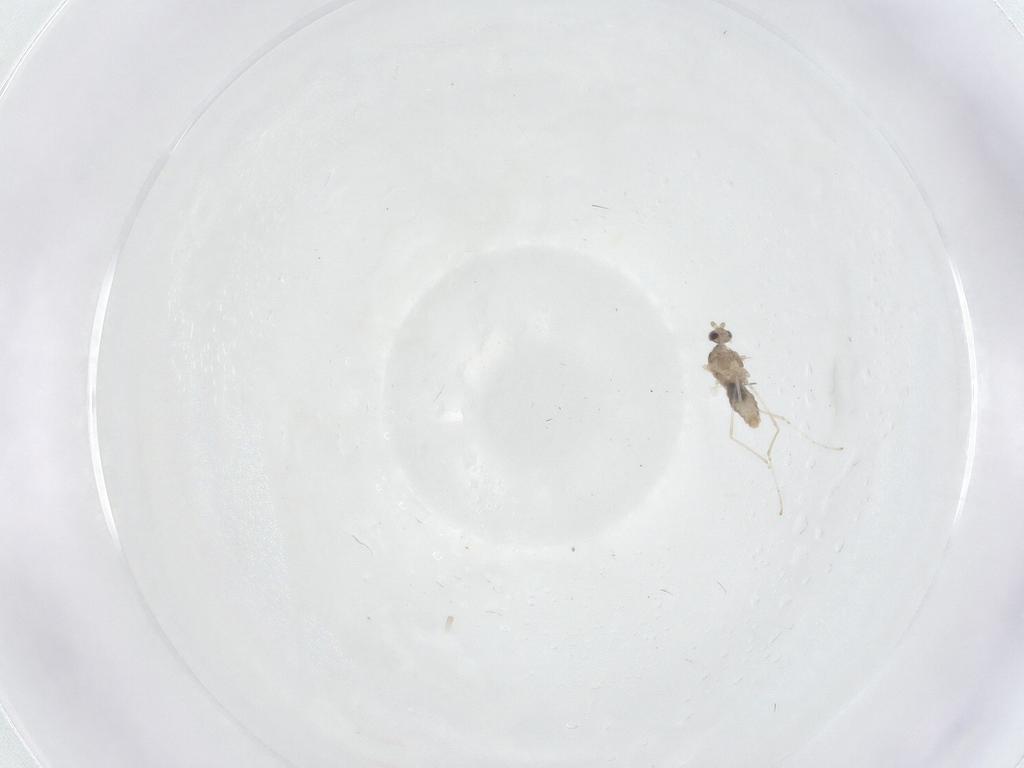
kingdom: Animalia
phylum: Arthropoda
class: Insecta
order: Diptera
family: Cecidomyiidae
